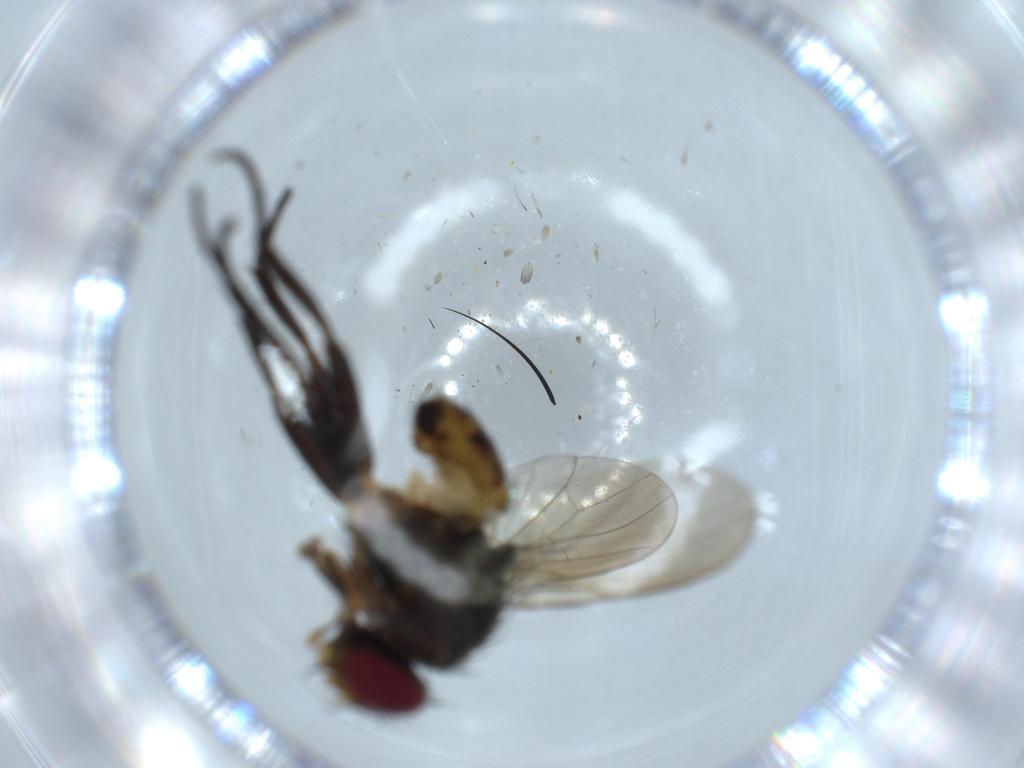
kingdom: Animalia
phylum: Arthropoda
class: Insecta
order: Diptera
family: Anthomyiidae
